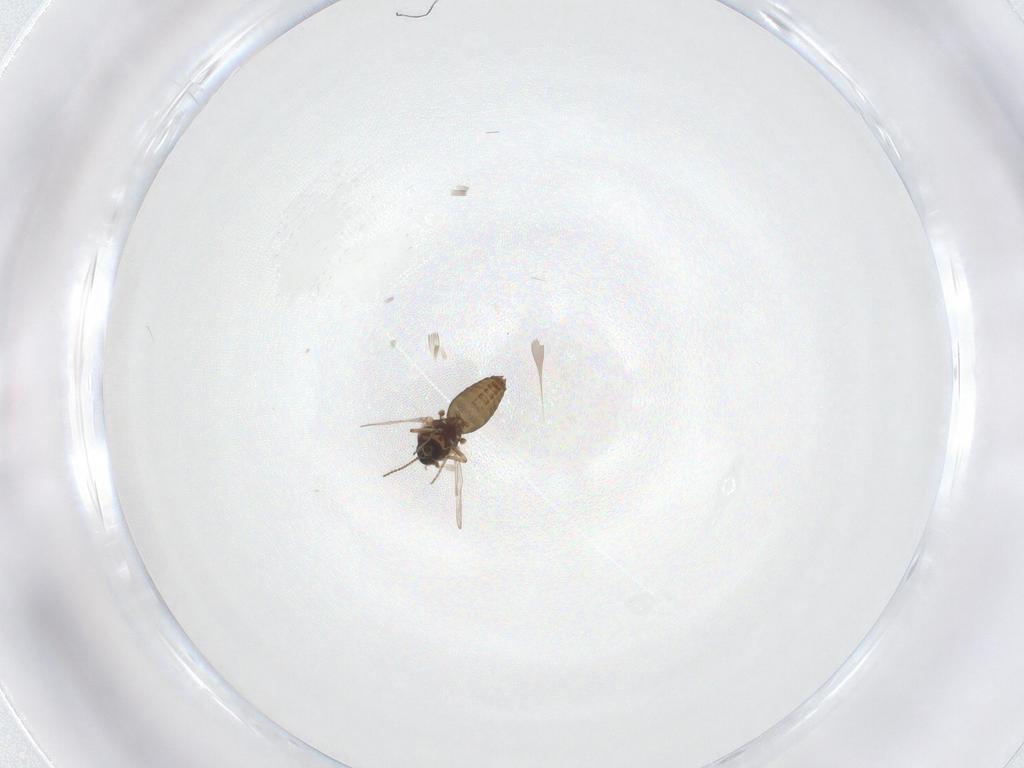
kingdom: Animalia
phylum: Arthropoda
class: Insecta
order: Diptera
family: Ceratopogonidae
